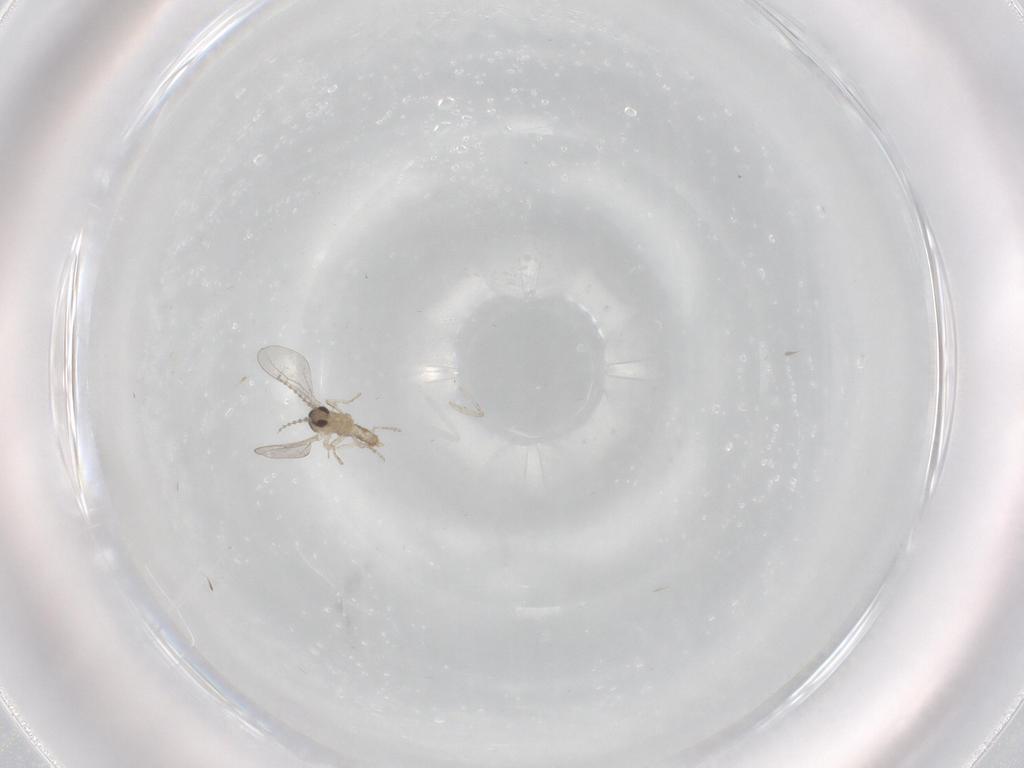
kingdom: Animalia
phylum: Arthropoda
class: Insecta
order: Diptera
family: Cecidomyiidae
